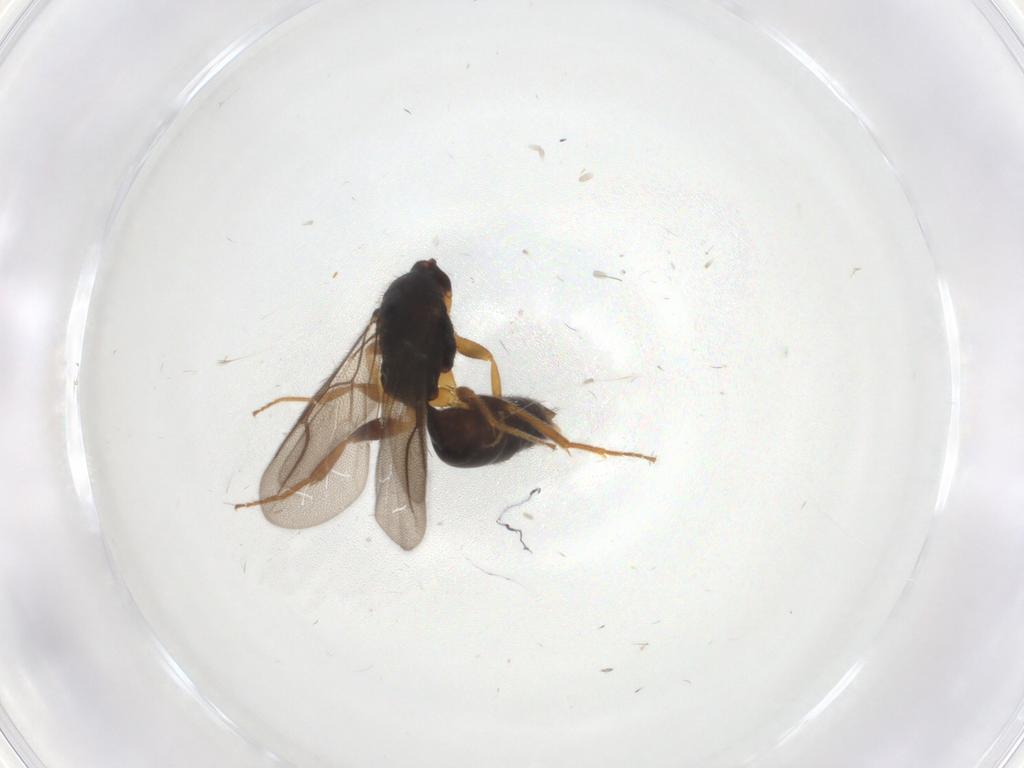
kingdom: Animalia
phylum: Arthropoda
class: Insecta
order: Hymenoptera
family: Bethylidae
